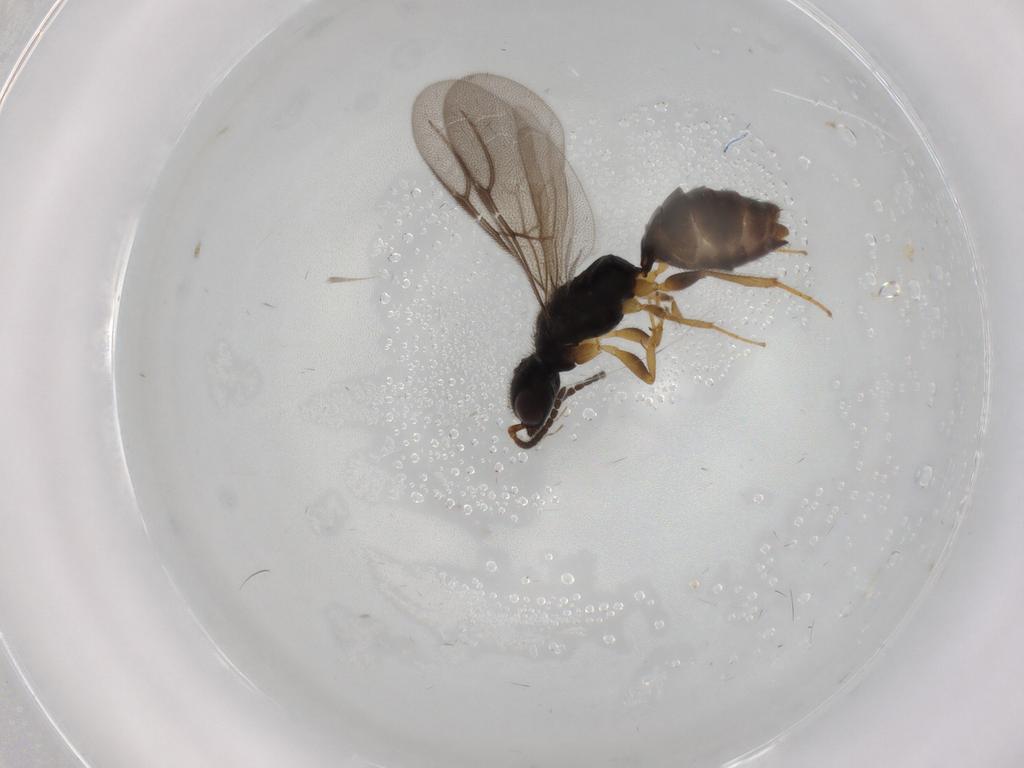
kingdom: Animalia
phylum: Arthropoda
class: Insecta
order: Hymenoptera
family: Bethylidae
